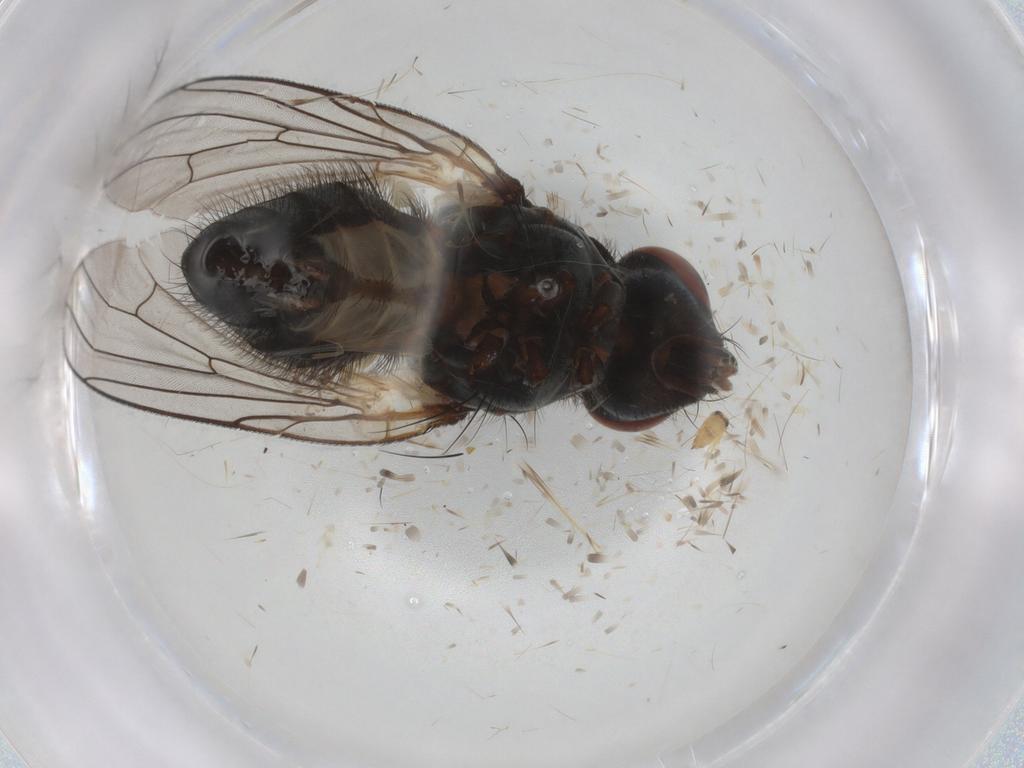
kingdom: Animalia
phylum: Arthropoda
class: Insecta
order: Diptera
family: Anthomyiidae
